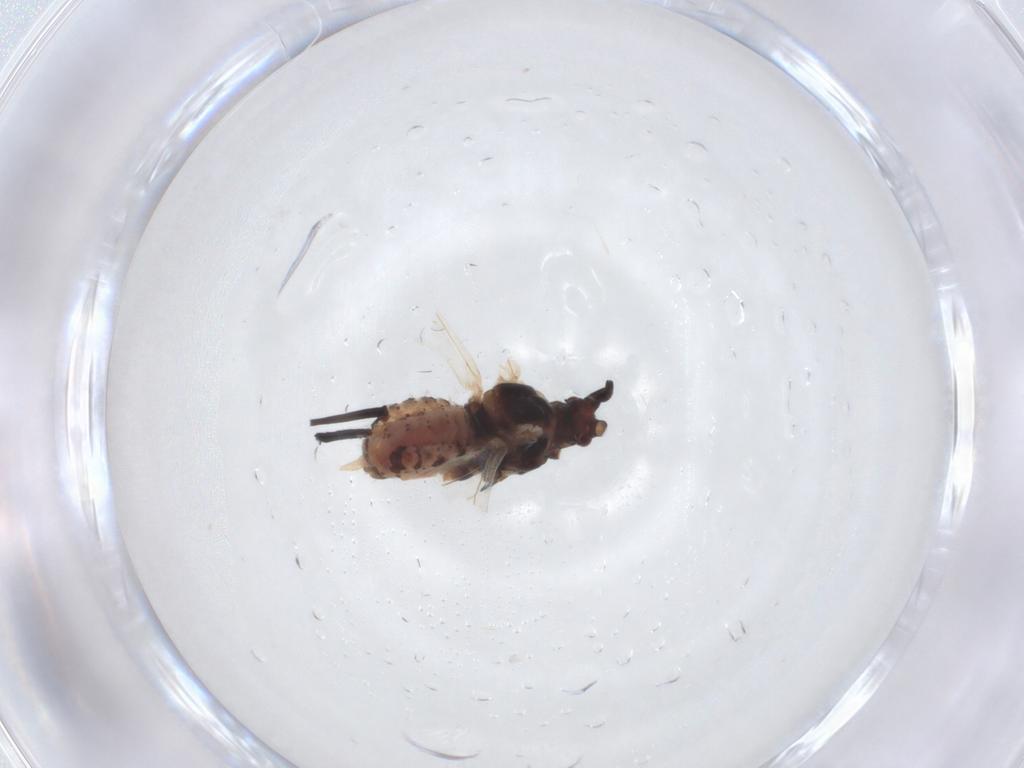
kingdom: Animalia
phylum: Arthropoda
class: Insecta
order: Hemiptera
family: Aphididae
